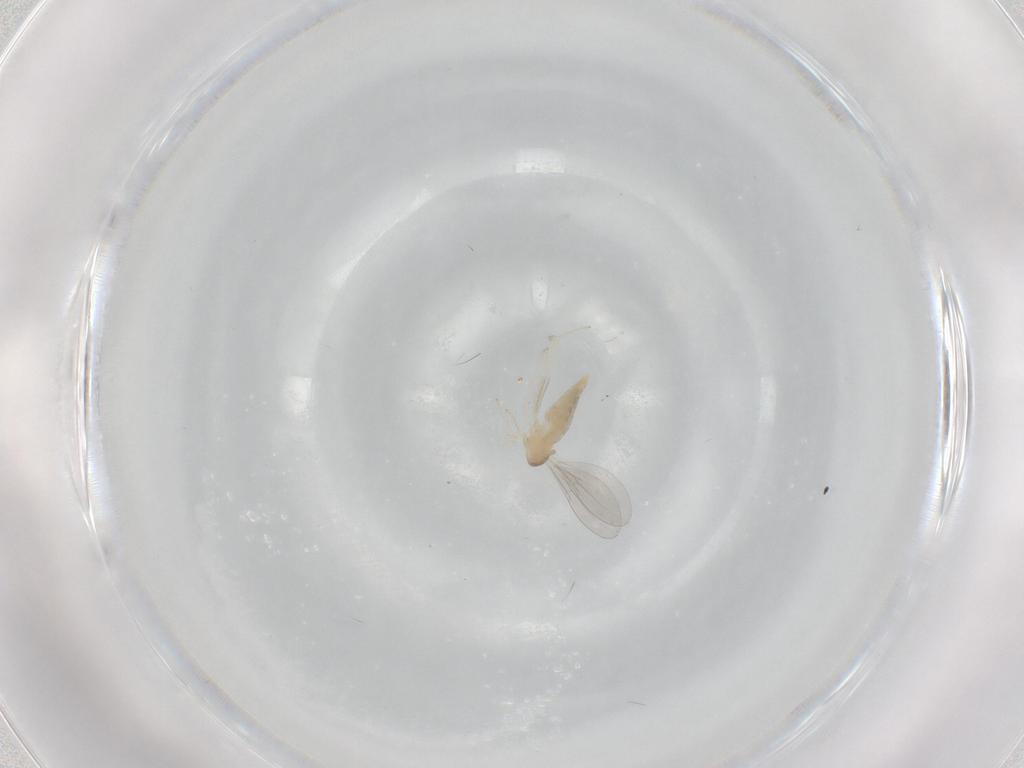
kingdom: Animalia
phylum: Arthropoda
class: Insecta
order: Diptera
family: Cecidomyiidae
